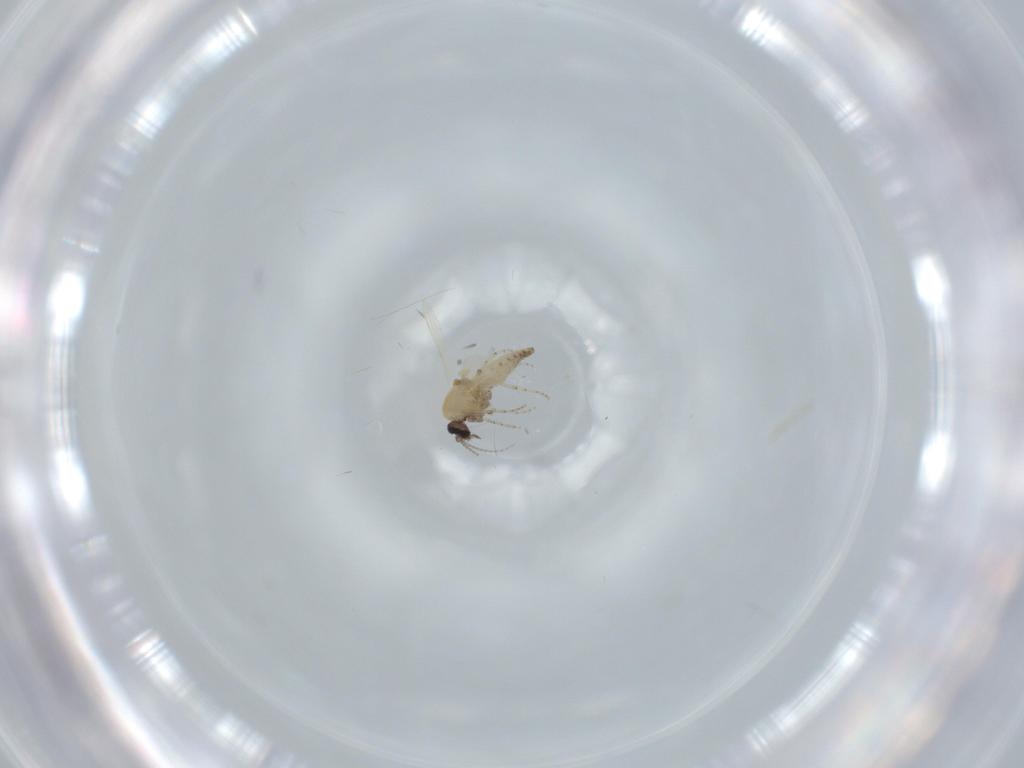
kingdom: Animalia
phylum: Arthropoda
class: Insecta
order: Diptera
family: Ceratopogonidae
